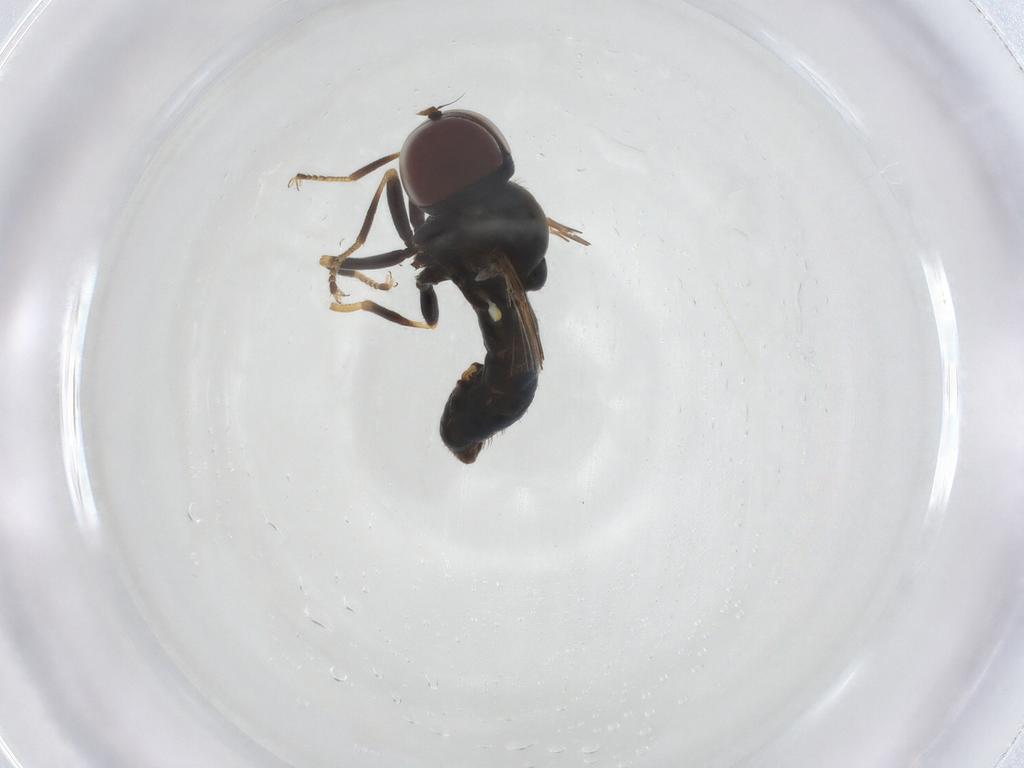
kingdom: Animalia
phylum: Arthropoda
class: Insecta
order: Diptera
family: Pipunculidae
